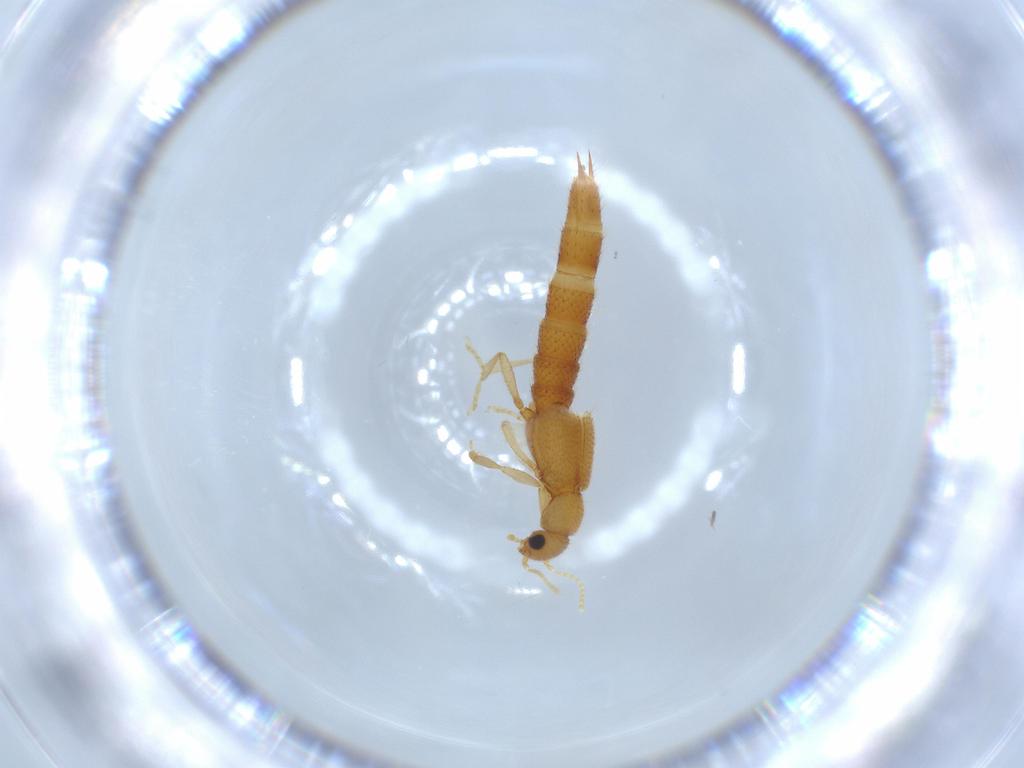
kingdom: Animalia
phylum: Arthropoda
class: Insecta
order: Coleoptera
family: Staphylinidae
